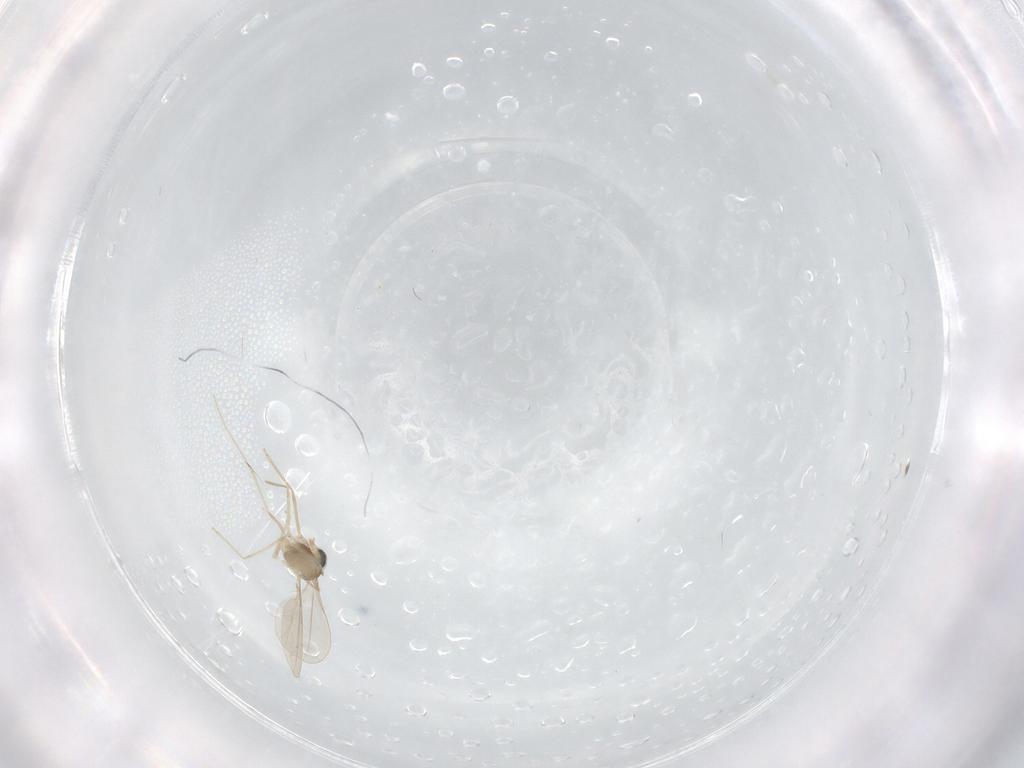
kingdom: Animalia
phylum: Arthropoda
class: Insecta
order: Diptera
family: Cecidomyiidae
